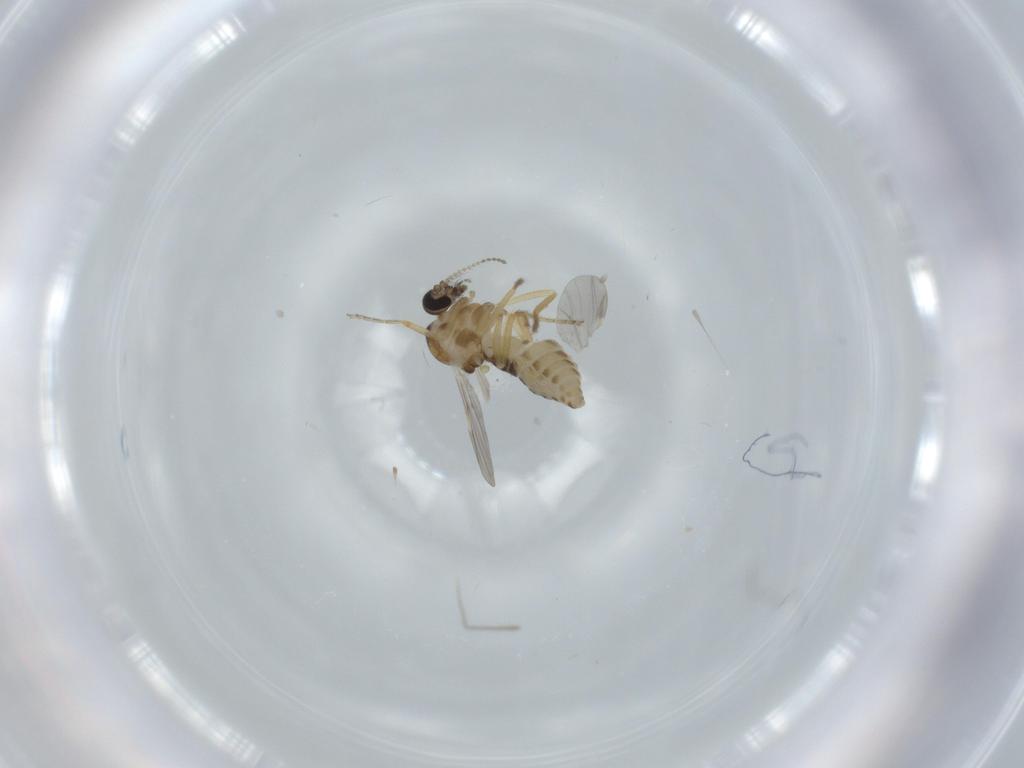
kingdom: Animalia
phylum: Arthropoda
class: Insecta
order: Diptera
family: Ceratopogonidae
